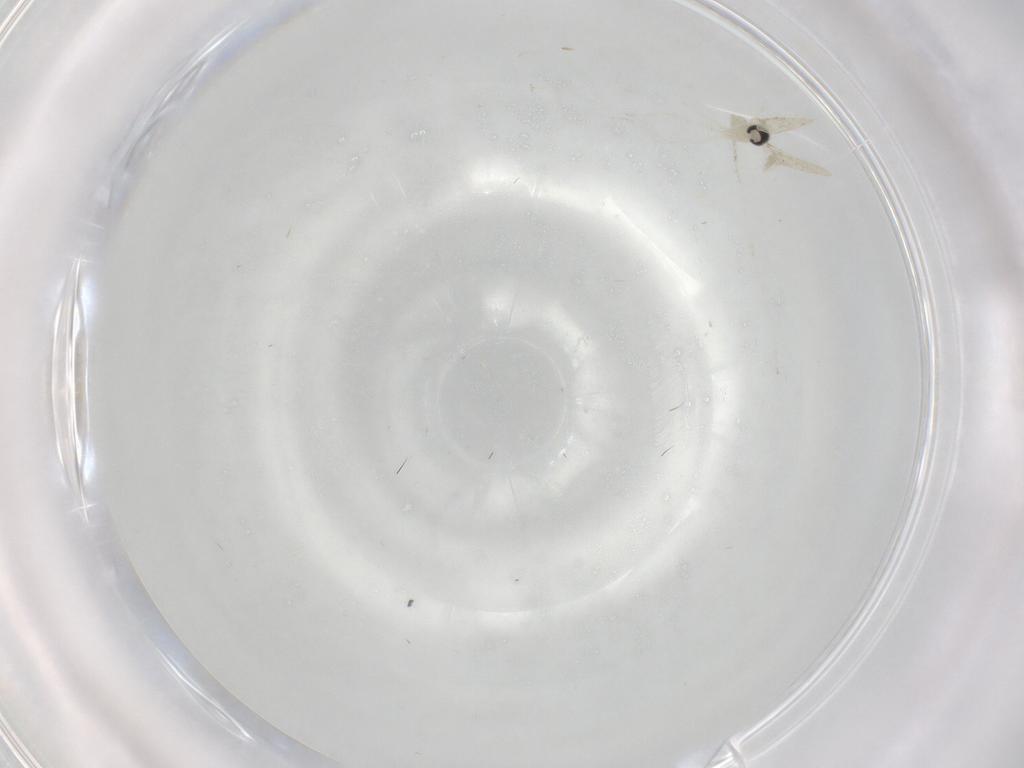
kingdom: Animalia
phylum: Arthropoda
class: Insecta
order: Diptera
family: Cecidomyiidae
